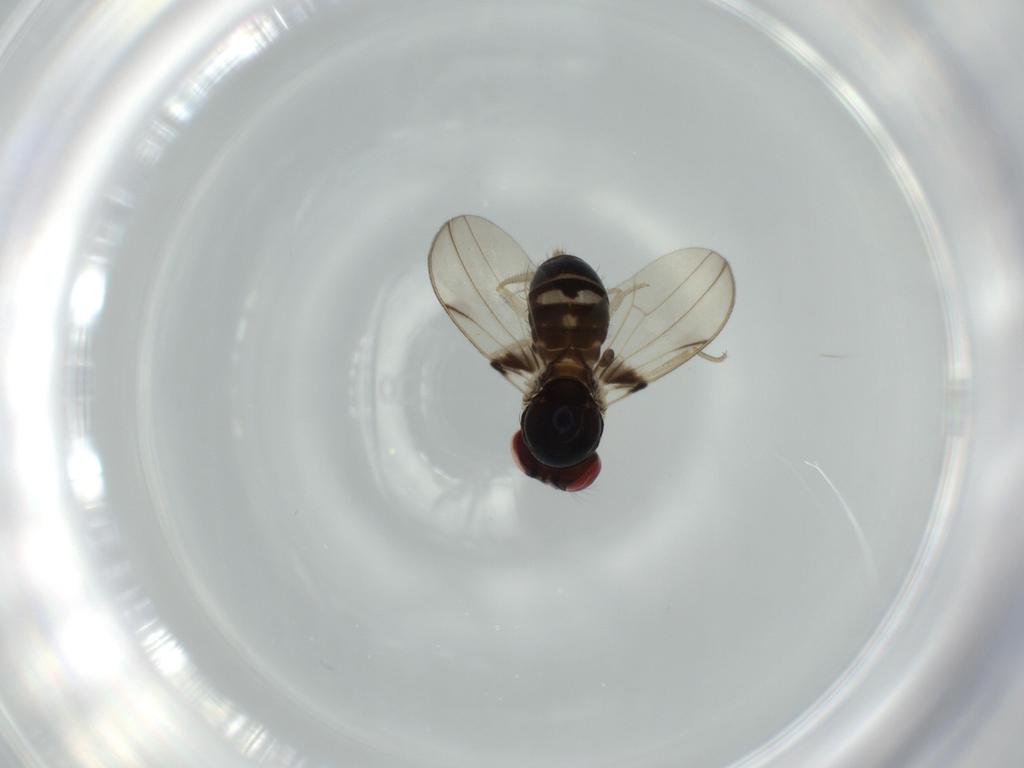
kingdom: Animalia
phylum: Arthropoda
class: Insecta
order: Diptera
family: Drosophilidae
